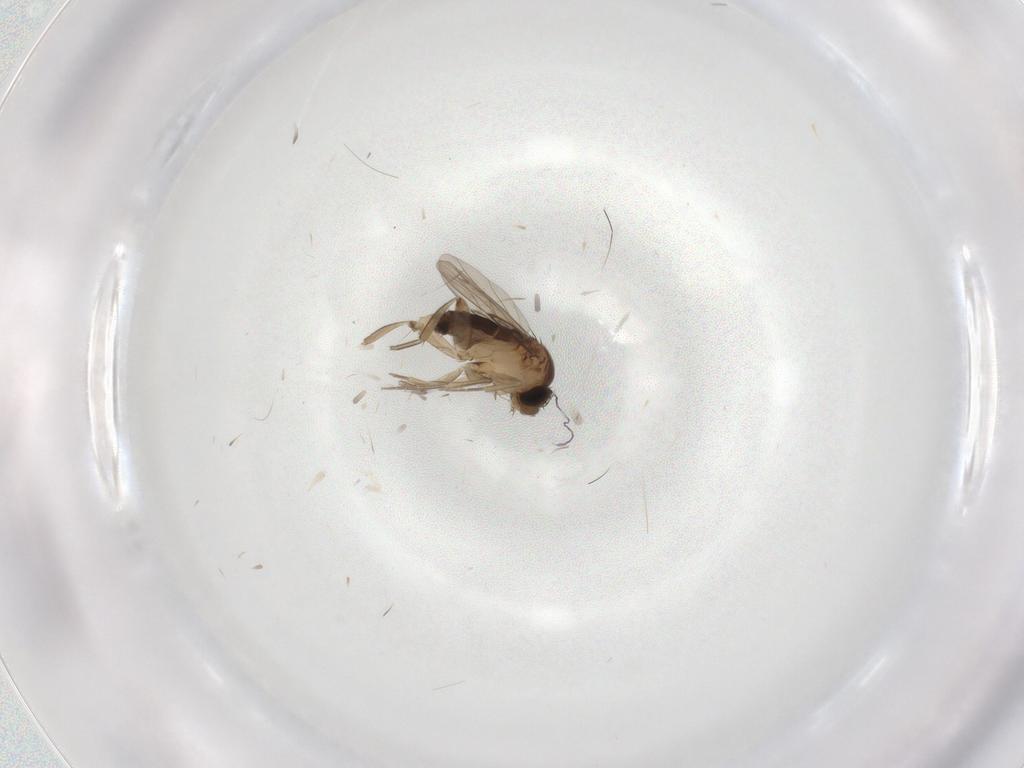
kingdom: Animalia
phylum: Arthropoda
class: Insecta
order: Diptera
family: Phoridae
